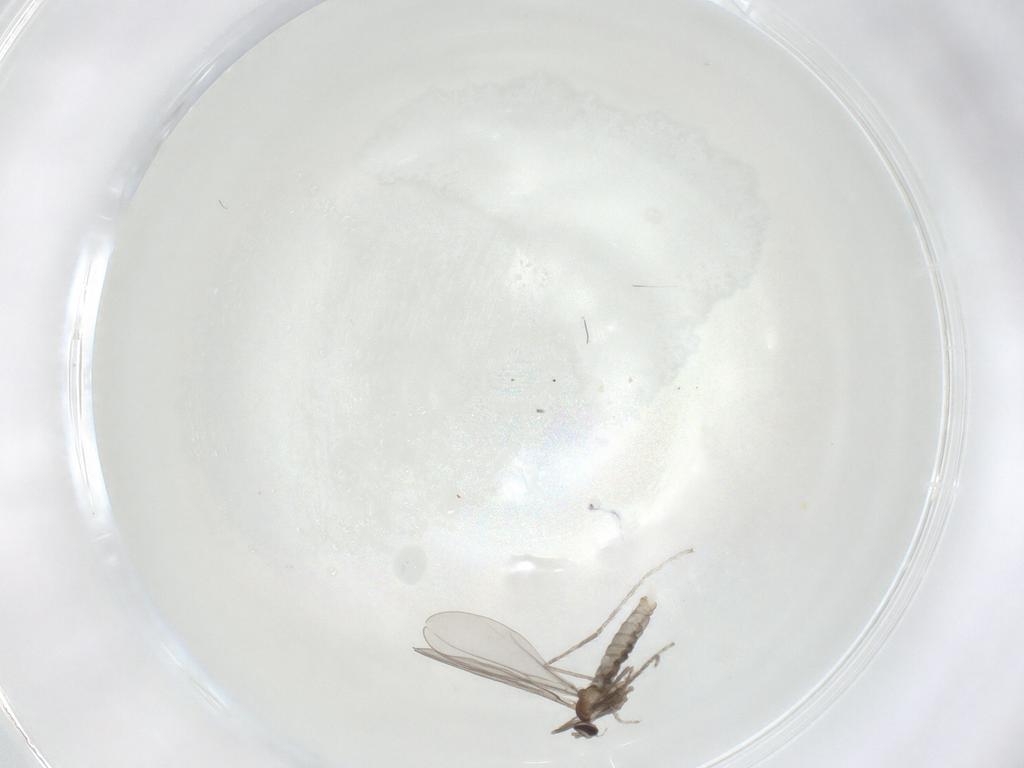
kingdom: Animalia
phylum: Arthropoda
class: Insecta
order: Diptera
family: Cecidomyiidae
